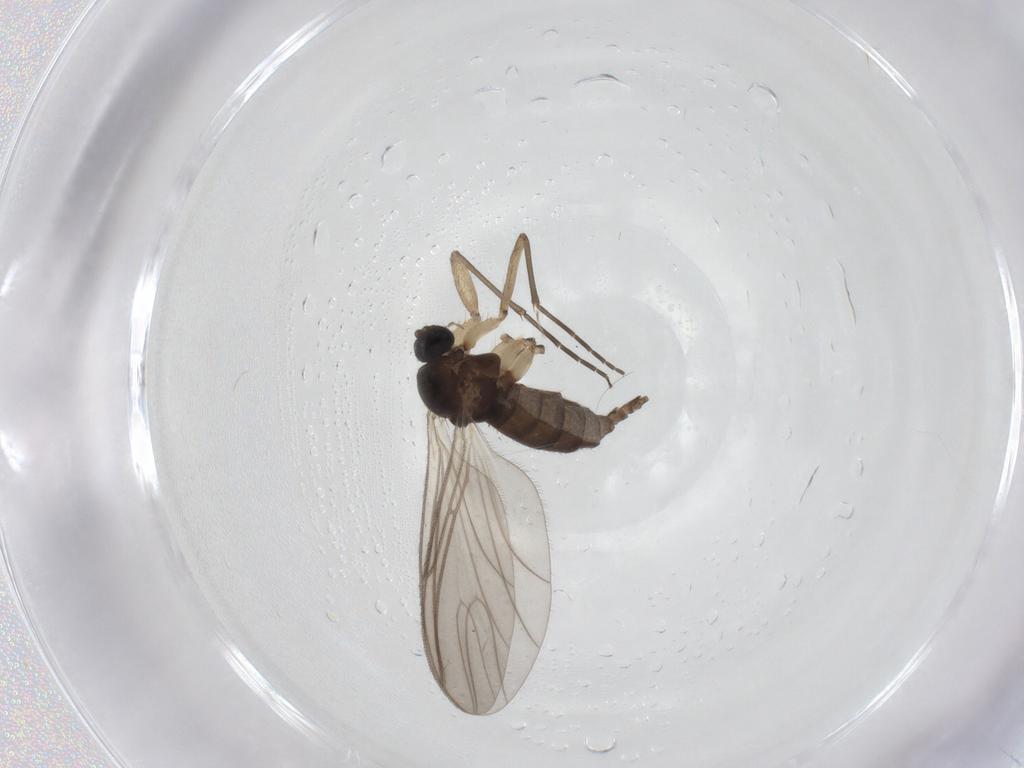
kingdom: Animalia
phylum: Arthropoda
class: Insecta
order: Diptera
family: Sciaridae
